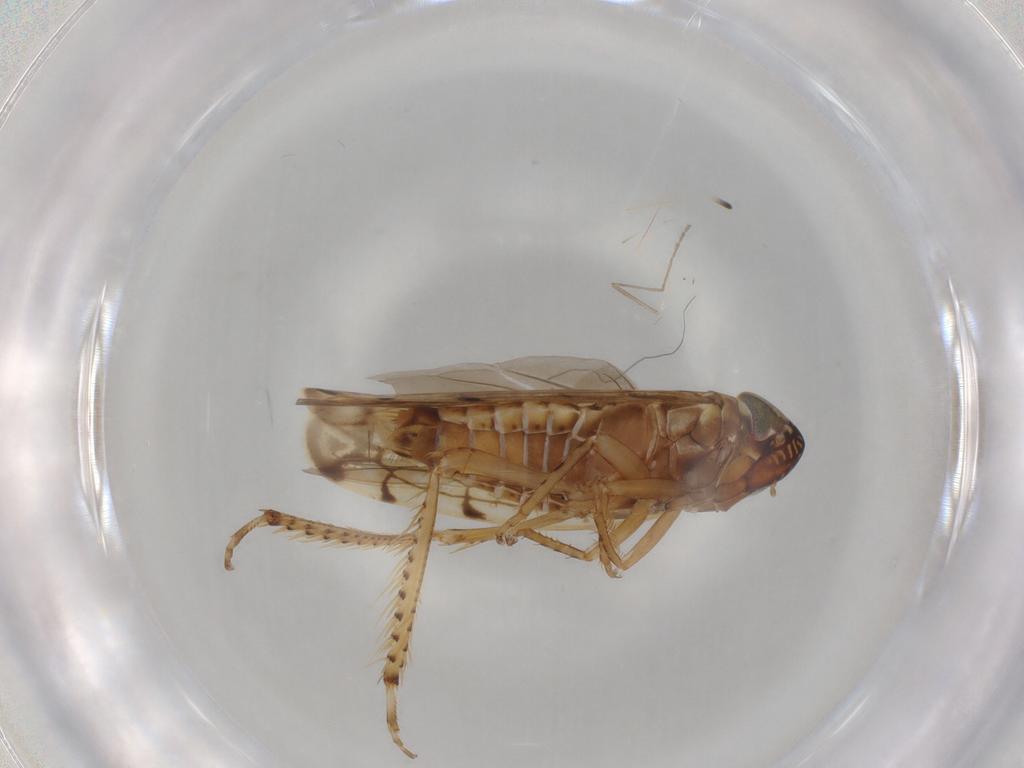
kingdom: Animalia
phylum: Arthropoda
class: Insecta
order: Hemiptera
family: Cicadellidae
